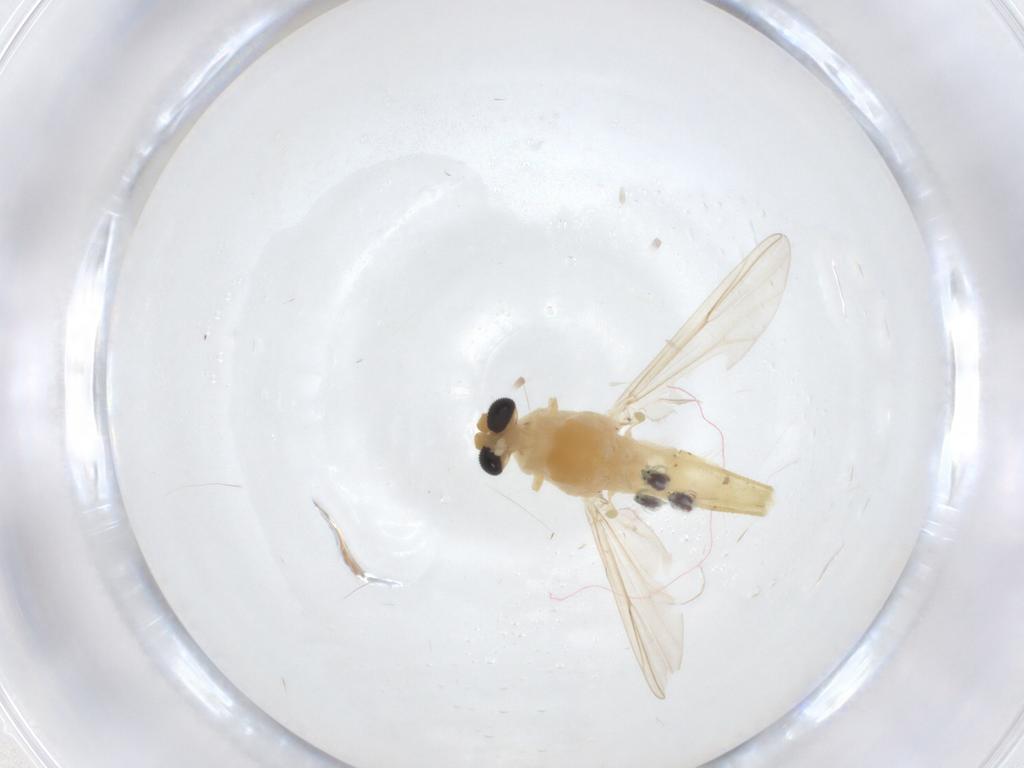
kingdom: Animalia
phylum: Arthropoda
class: Insecta
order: Diptera
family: Chironomidae
